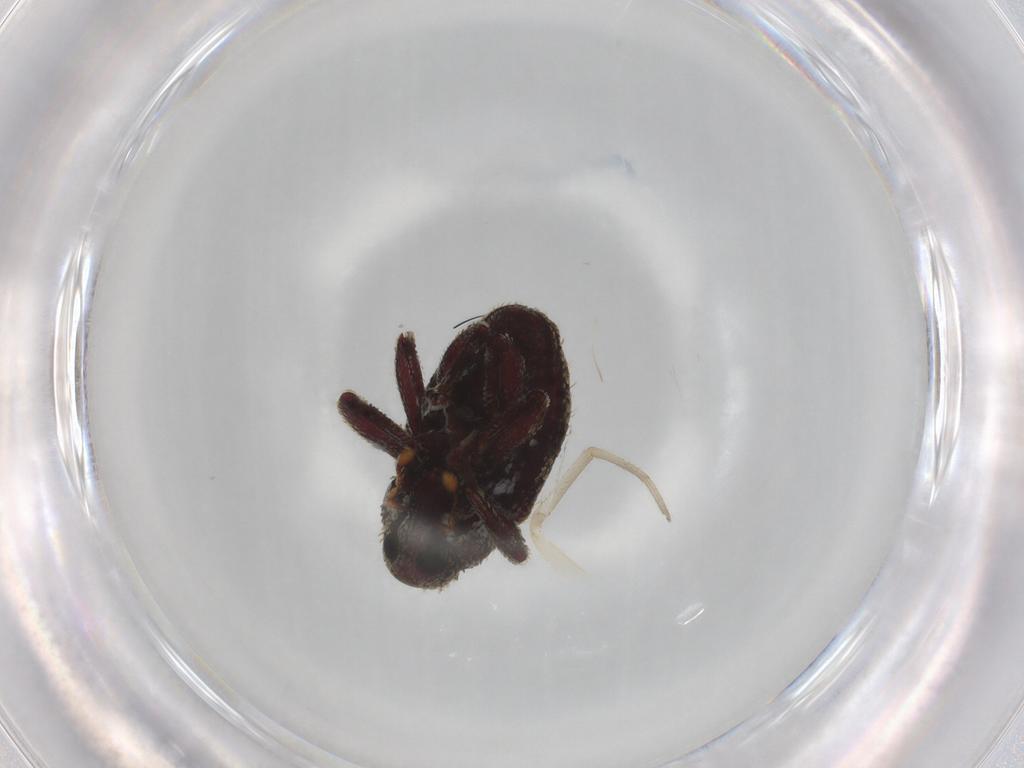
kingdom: Animalia
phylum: Arthropoda
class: Insecta
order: Coleoptera
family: Curculionidae
